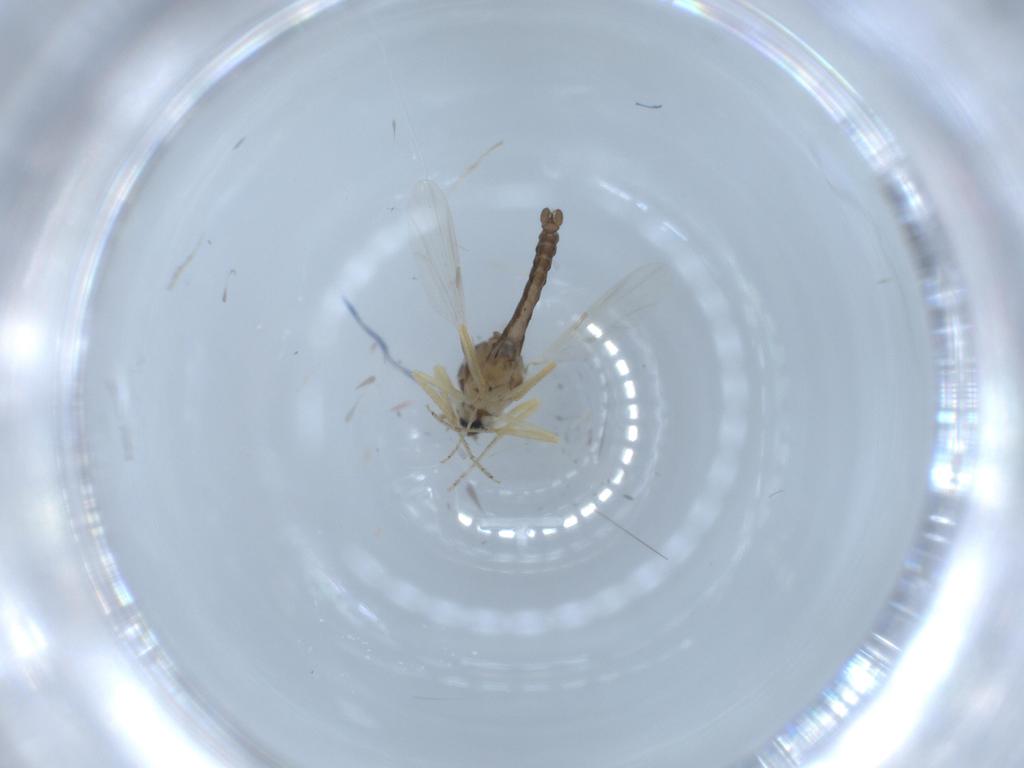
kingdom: Animalia
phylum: Arthropoda
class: Insecta
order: Diptera
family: Ceratopogonidae
